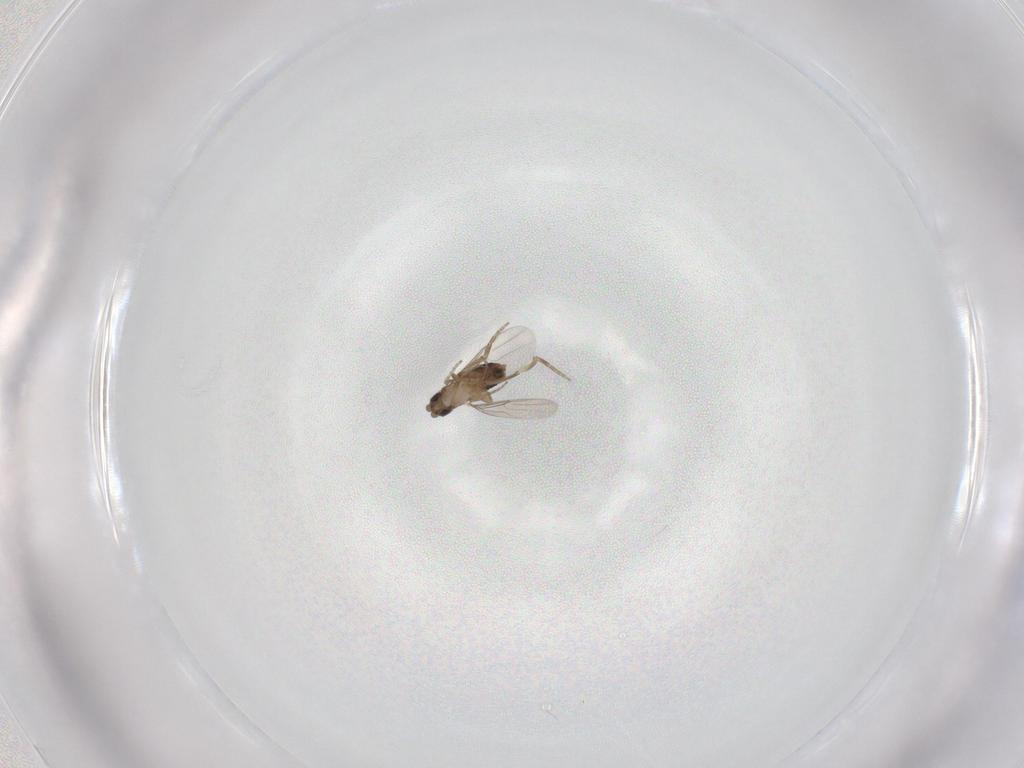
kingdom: Animalia
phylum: Arthropoda
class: Insecta
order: Diptera
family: Phoridae
